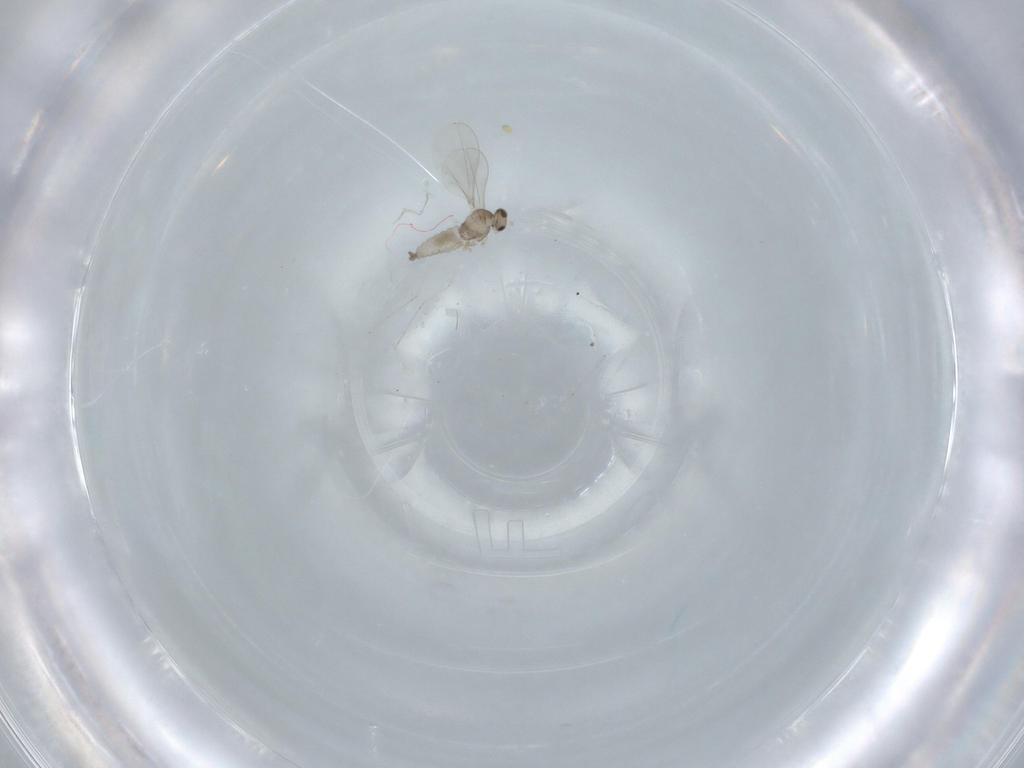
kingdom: Animalia
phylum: Arthropoda
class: Insecta
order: Diptera
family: Cecidomyiidae
